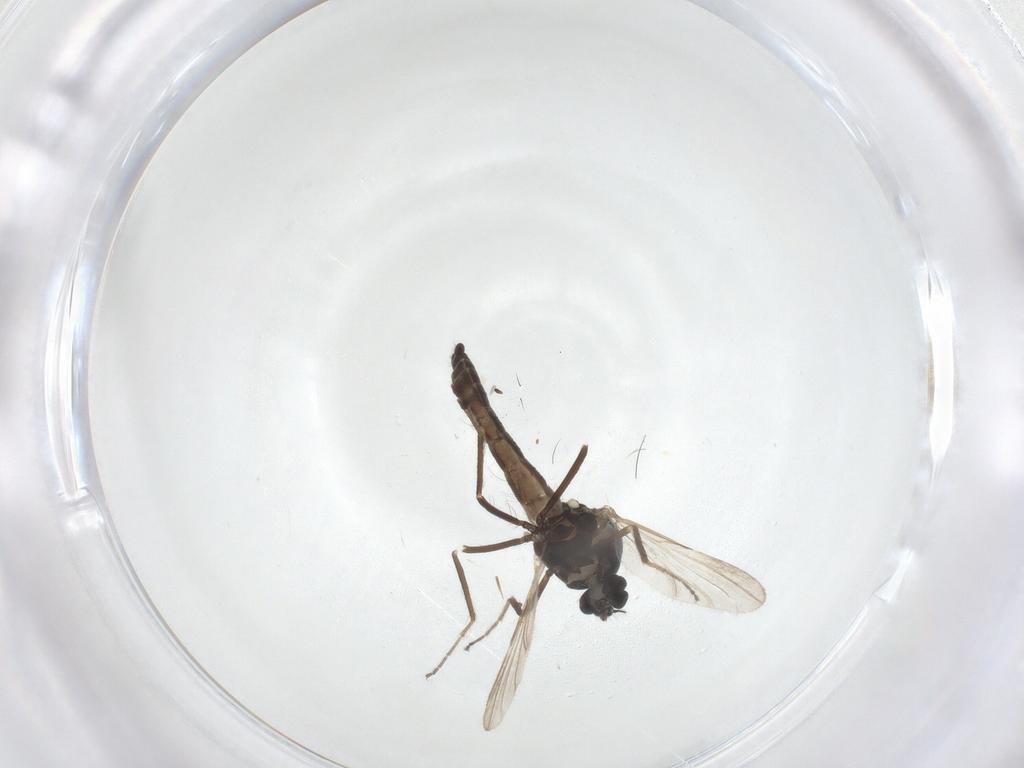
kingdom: Animalia
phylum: Arthropoda
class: Insecta
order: Diptera
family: Ceratopogonidae
